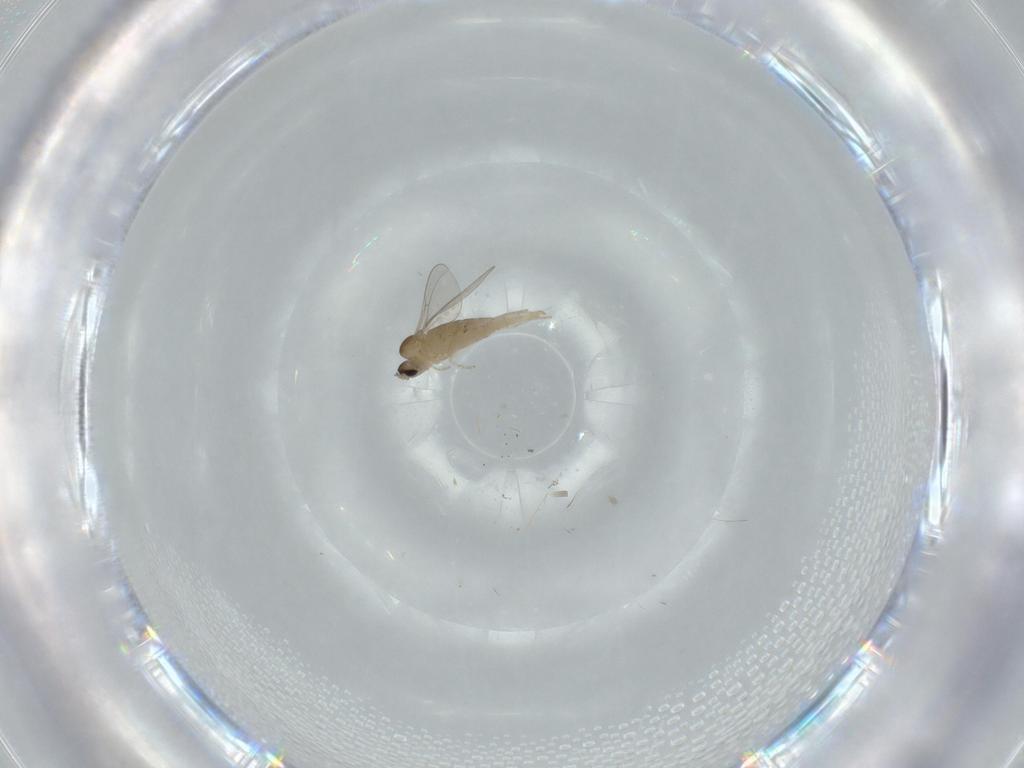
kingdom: Animalia
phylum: Arthropoda
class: Insecta
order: Diptera
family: Cecidomyiidae
